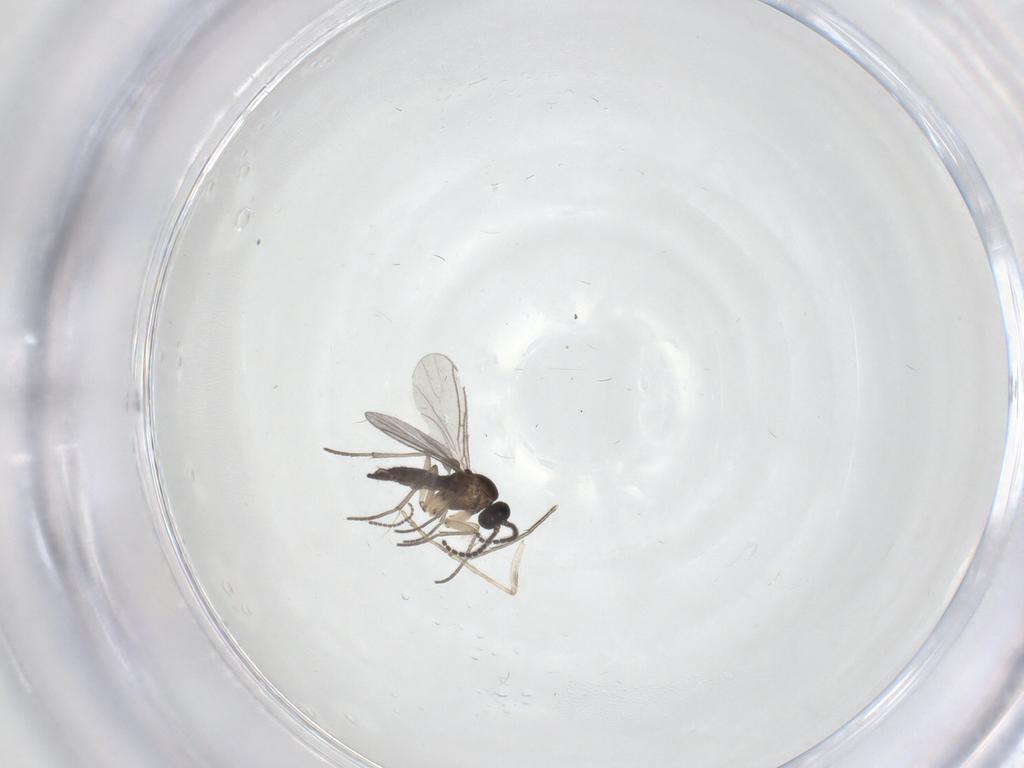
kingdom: Animalia
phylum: Arthropoda
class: Insecta
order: Diptera
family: Sciaridae
